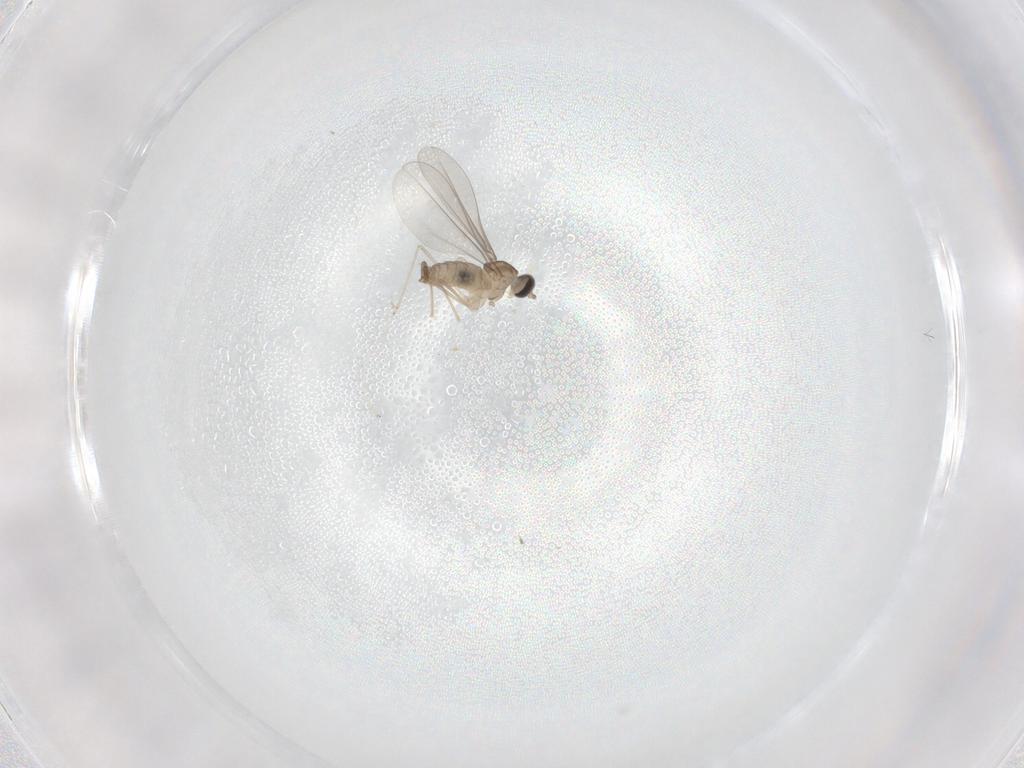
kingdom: Animalia
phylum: Arthropoda
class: Insecta
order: Diptera
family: Cecidomyiidae
